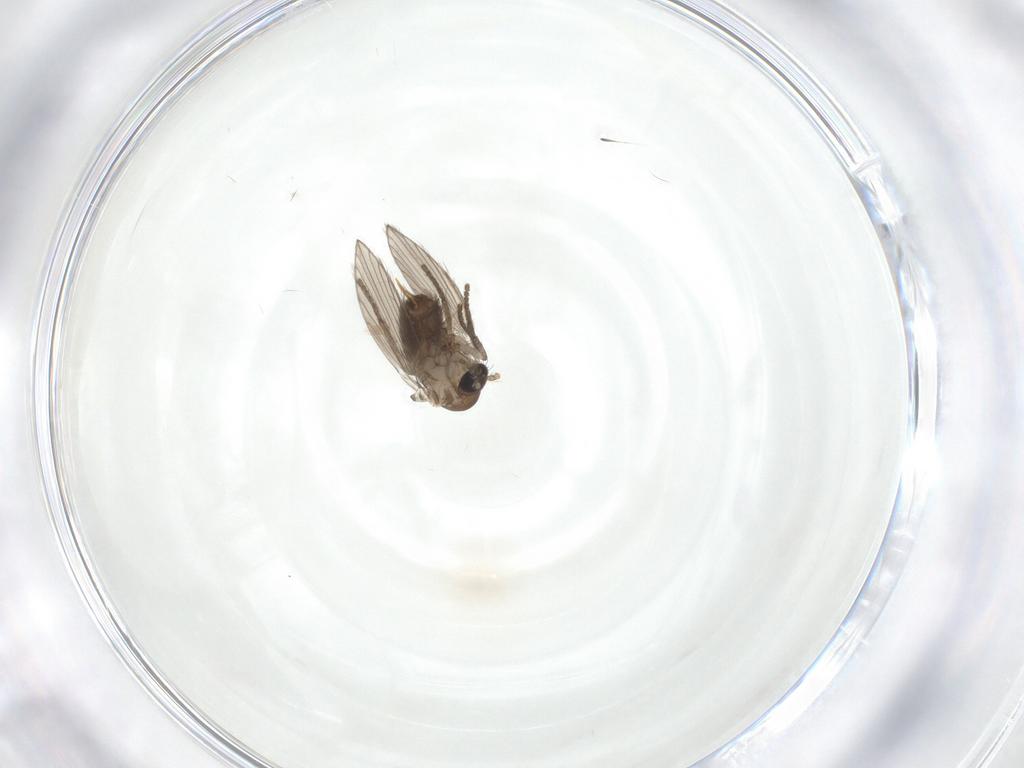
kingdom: Animalia
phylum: Arthropoda
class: Insecta
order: Diptera
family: Chironomidae
